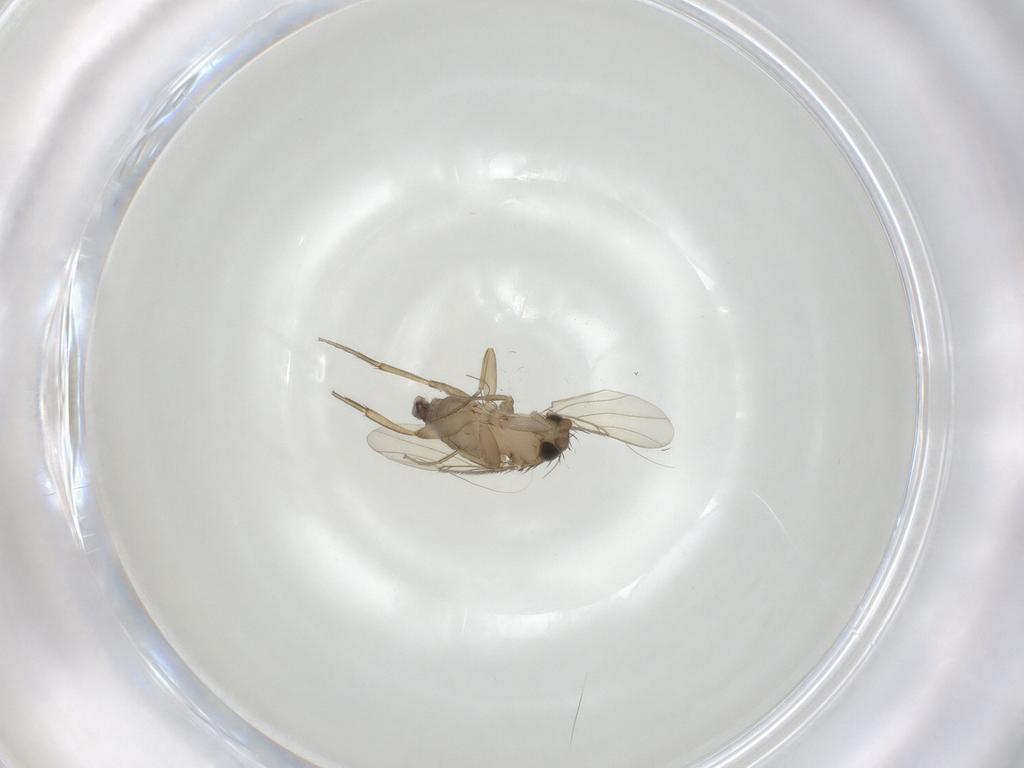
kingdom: Animalia
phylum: Arthropoda
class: Insecta
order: Diptera
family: Phoridae
